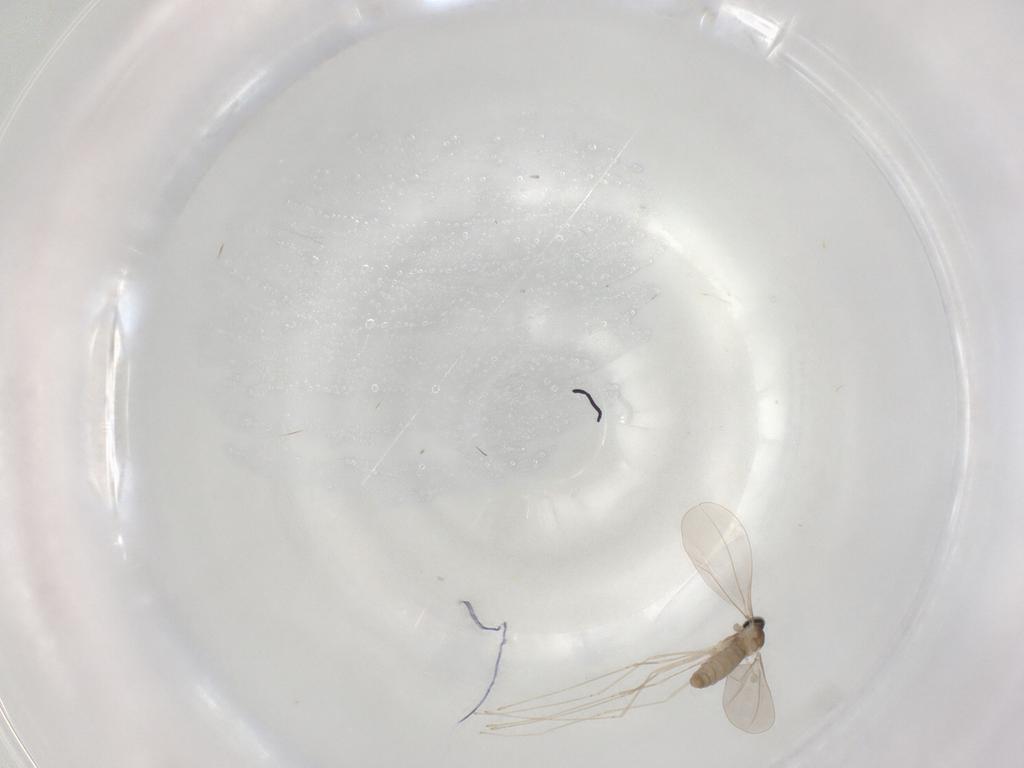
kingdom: Animalia
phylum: Arthropoda
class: Insecta
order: Diptera
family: Cecidomyiidae
